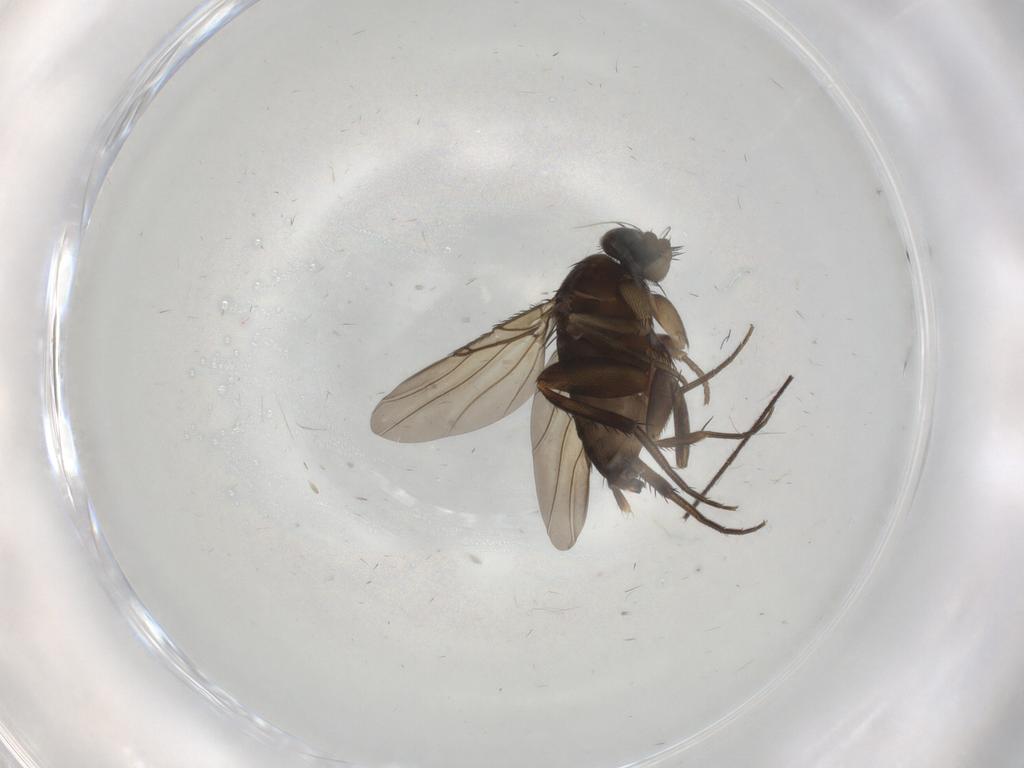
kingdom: Animalia
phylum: Arthropoda
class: Insecta
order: Diptera
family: Phoridae
